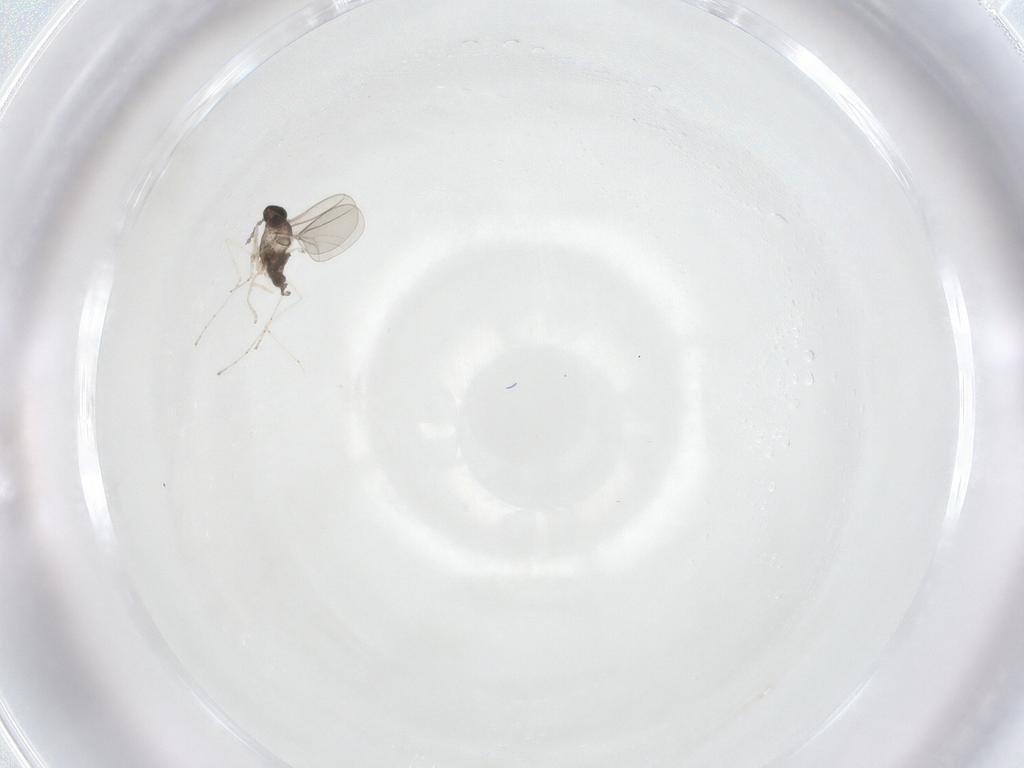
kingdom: Animalia
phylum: Arthropoda
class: Insecta
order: Diptera
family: Cecidomyiidae
